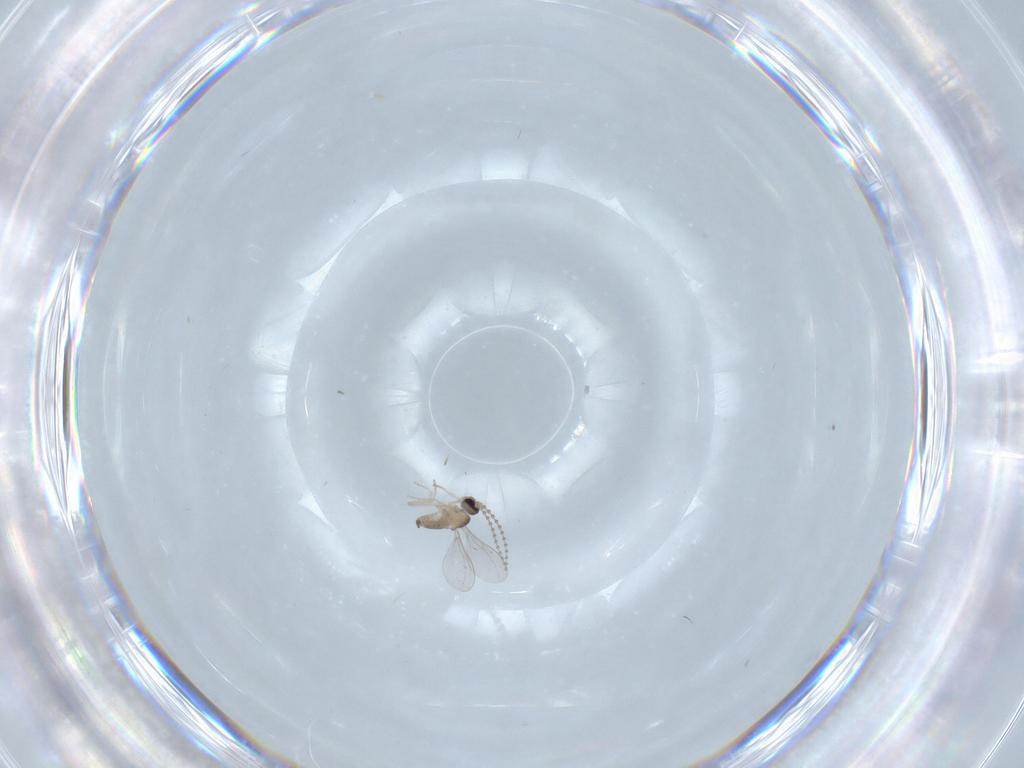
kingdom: Animalia
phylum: Arthropoda
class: Insecta
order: Diptera
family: Cecidomyiidae
